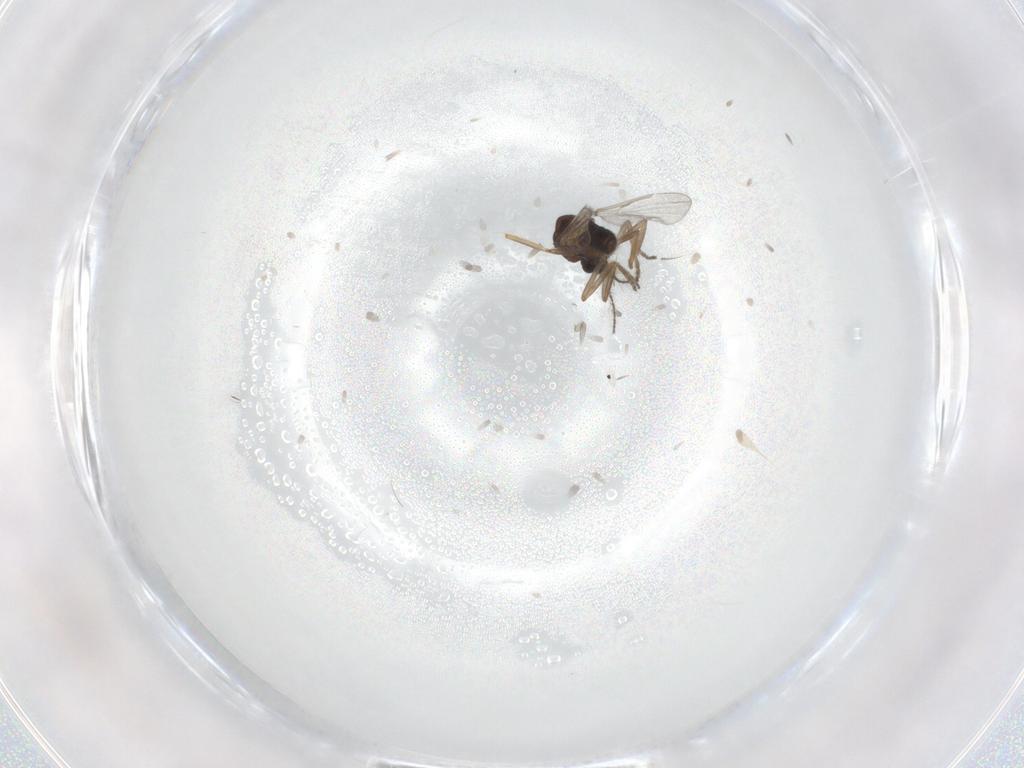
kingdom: Animalia
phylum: Arthropoda
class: Insecta
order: Diptera
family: Ceratopogonidae
